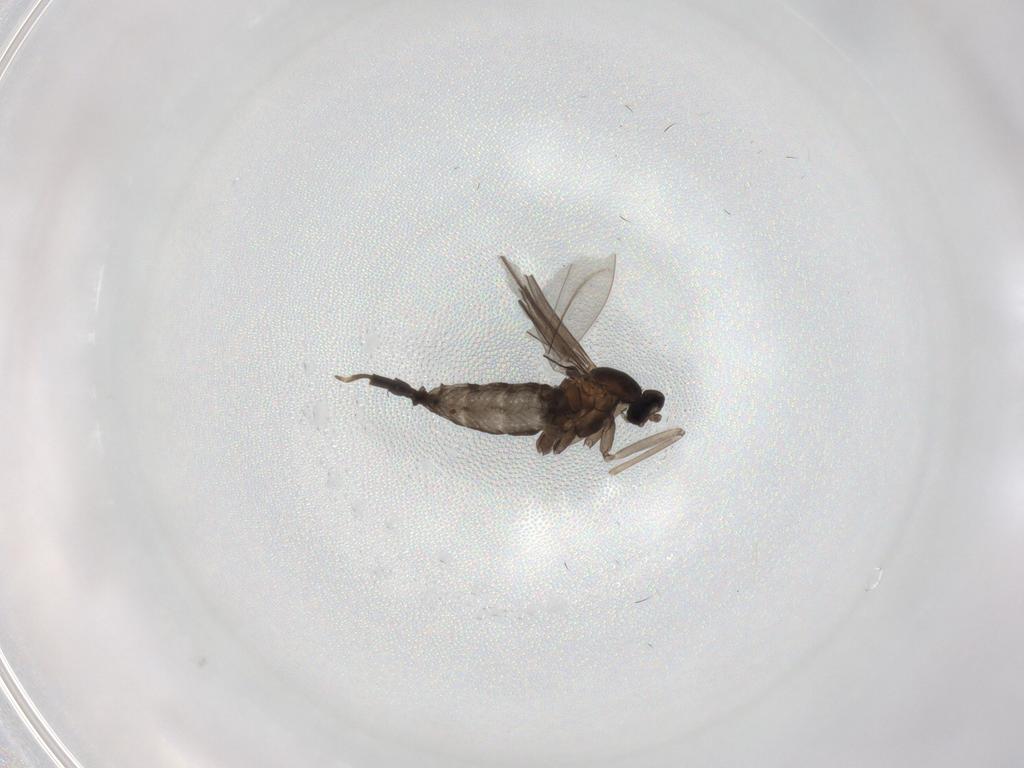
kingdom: Animalia
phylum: Arthropoda
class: Insecta
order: Diptera
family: Cecidomyiidae
